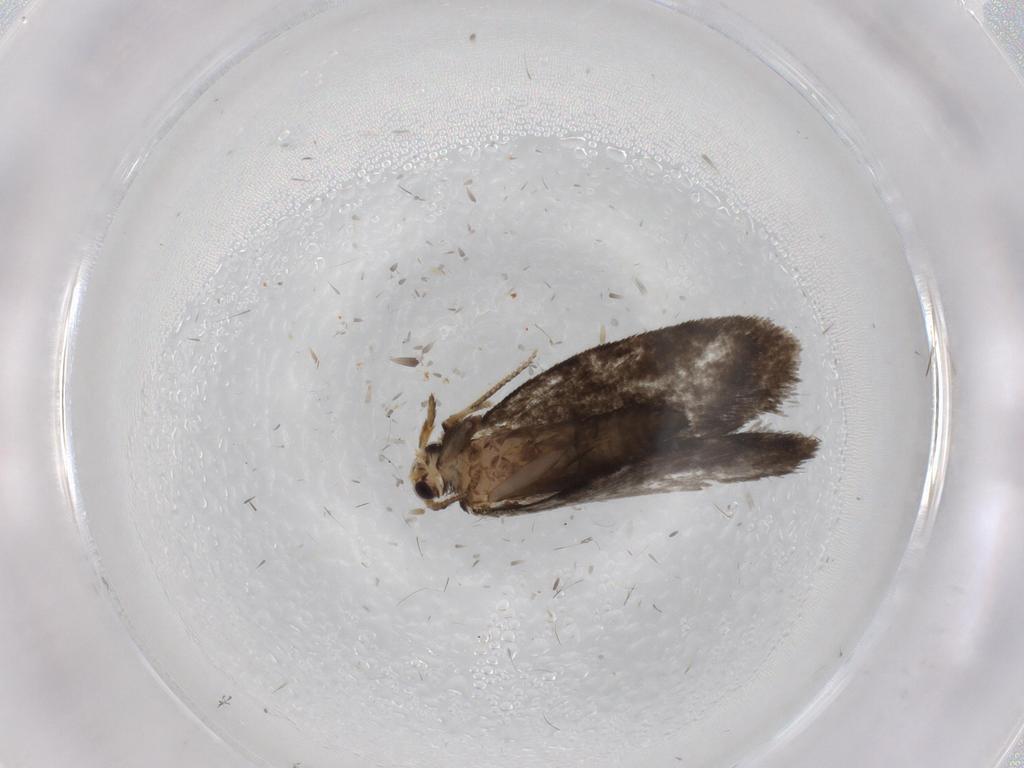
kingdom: Animalia
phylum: Arthropoda
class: Insecta
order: Lepidoptera
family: Psychidae
